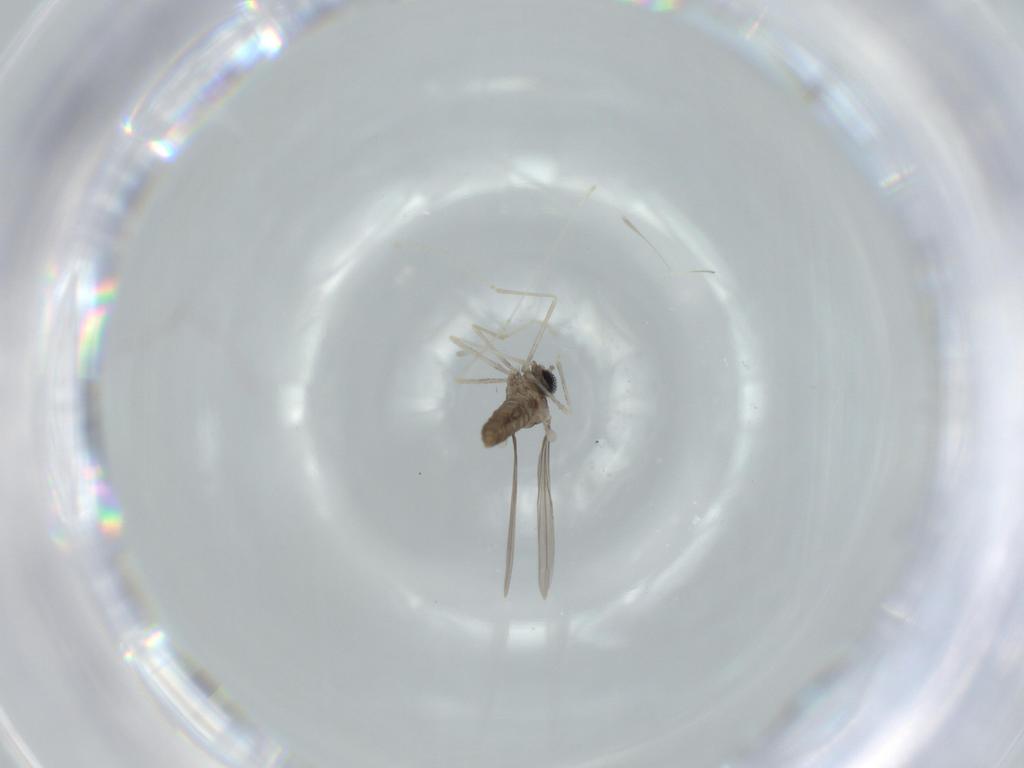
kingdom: Animalia
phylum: Arthropoda
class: Insecta
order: Diptera
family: Cecidomyiidae
